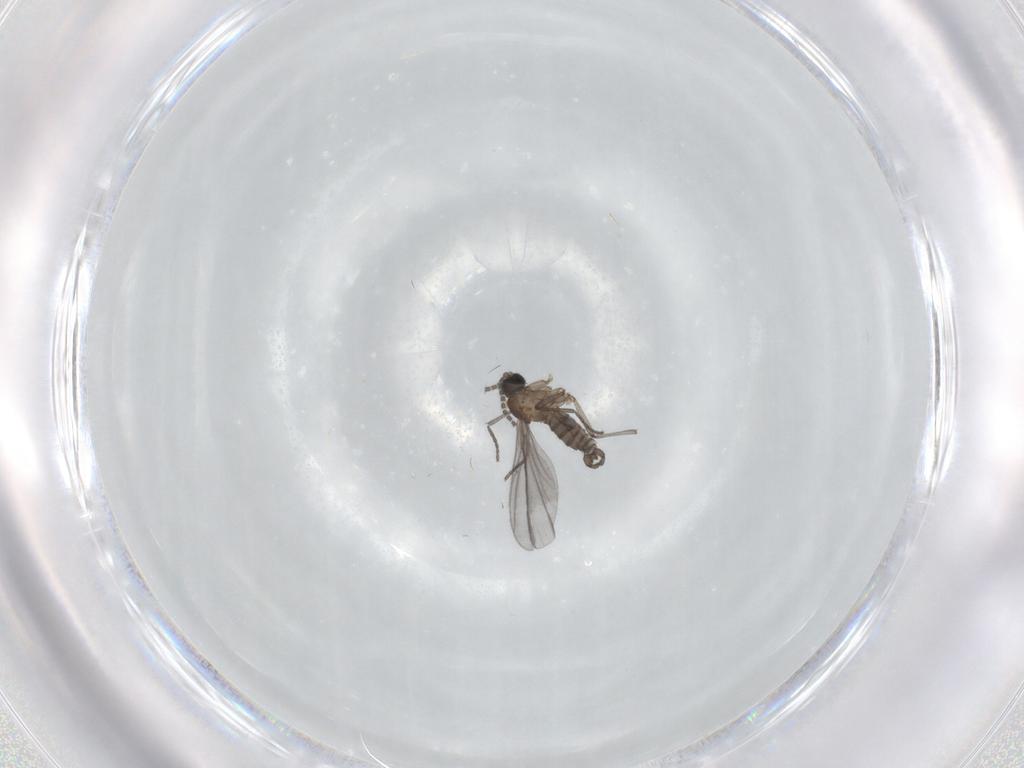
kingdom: Animalia
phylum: Arthropoda
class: Insecta
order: Diptera
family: Sciaridae
